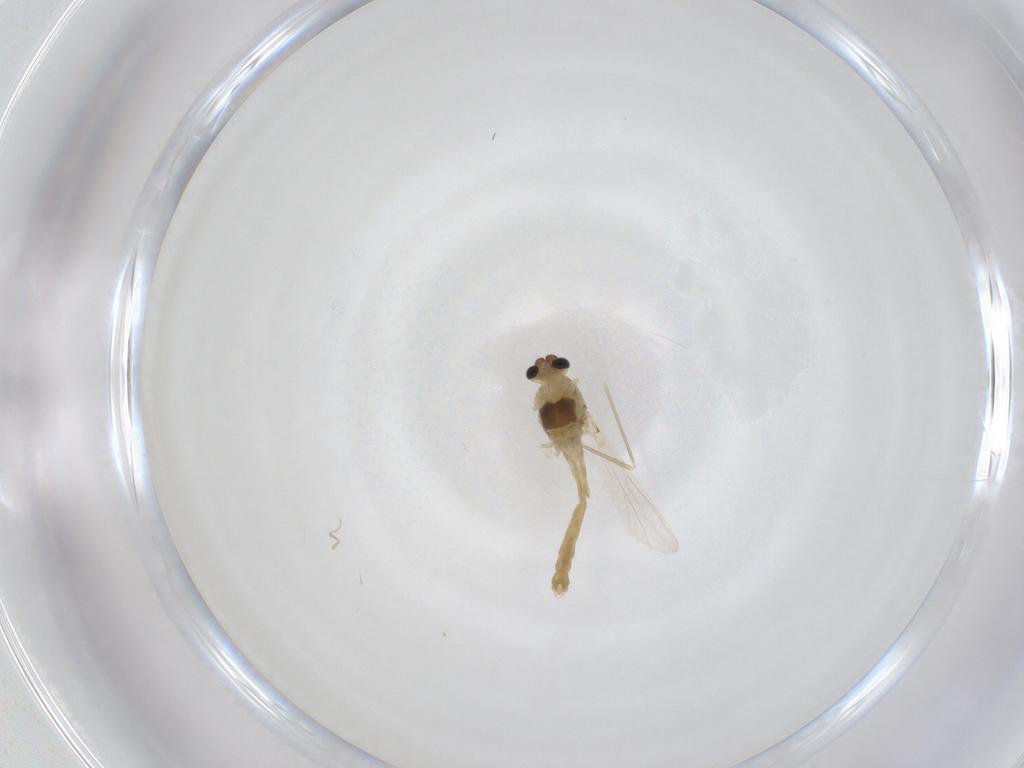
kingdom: Animalia
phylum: Arthropoda
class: Insecta
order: Diptera
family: Chironomidae
